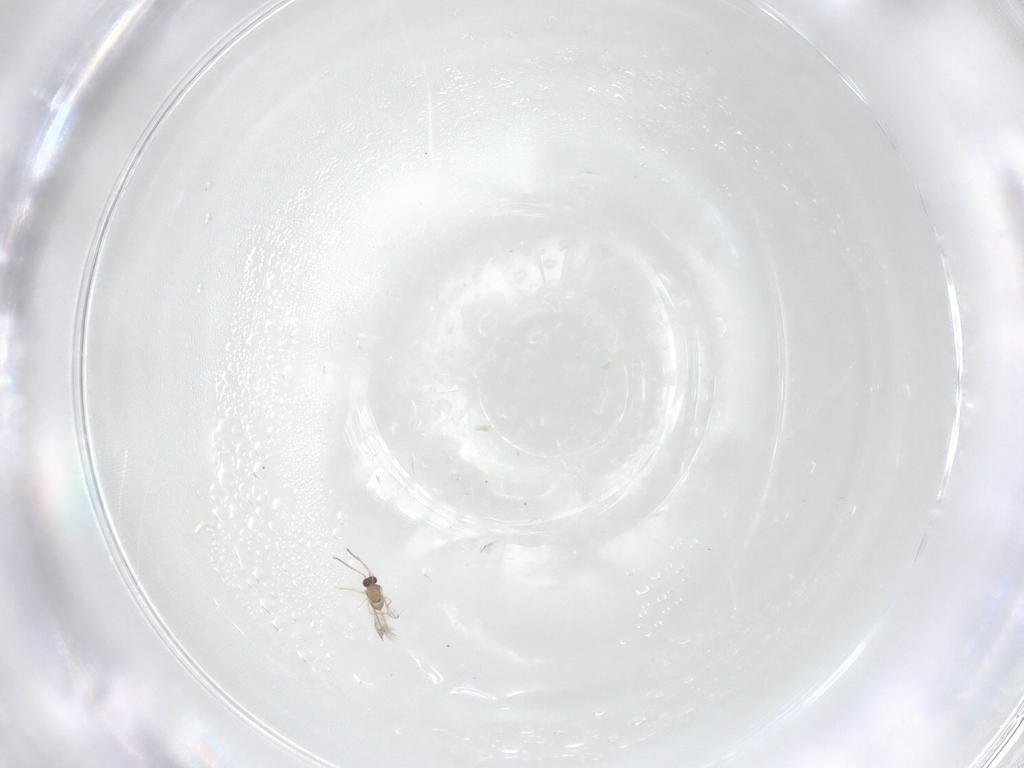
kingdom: Animalia
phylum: Arthropoda
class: Insecta
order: Hymenoptera
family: Mymaridae
